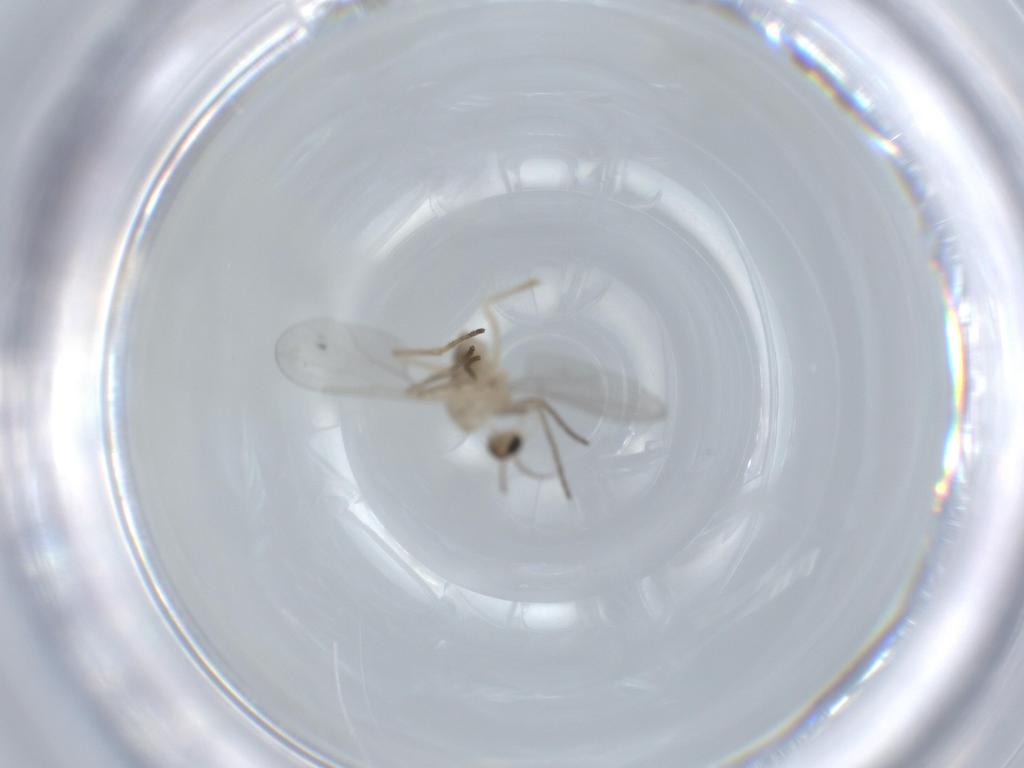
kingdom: Animalia
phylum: Arthropoda
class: Insecta
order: Diptera
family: Cecidomyiidae
